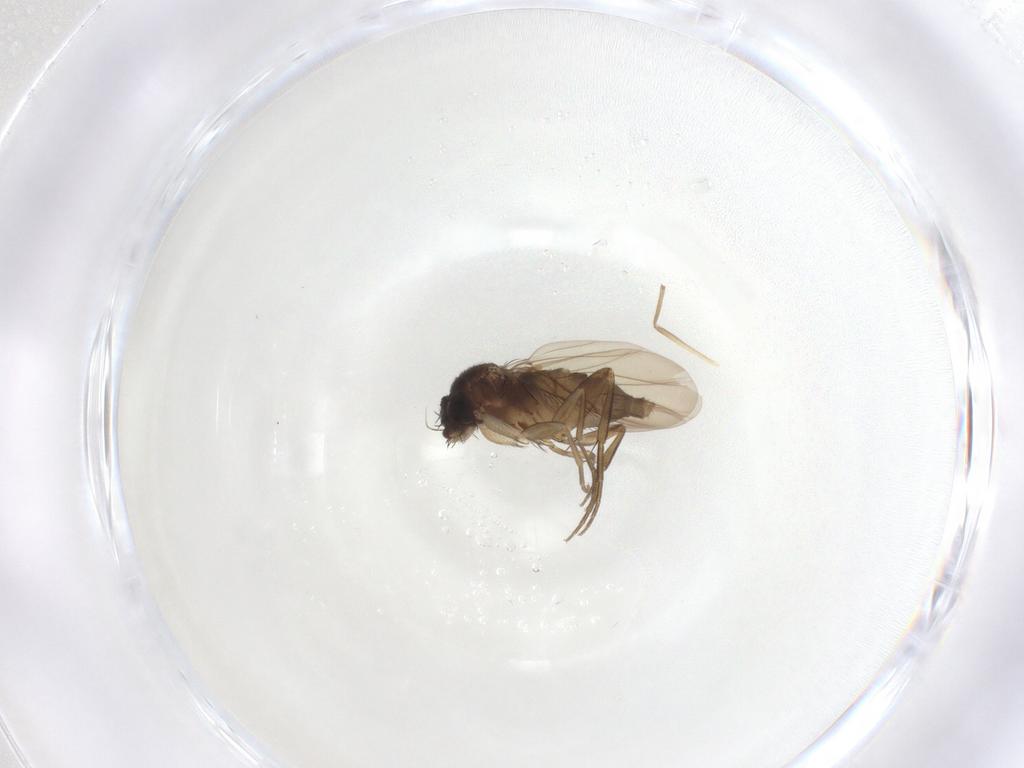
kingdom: Animalia
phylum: Arthropoda
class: Insecta
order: Diptera
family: Phoridae
